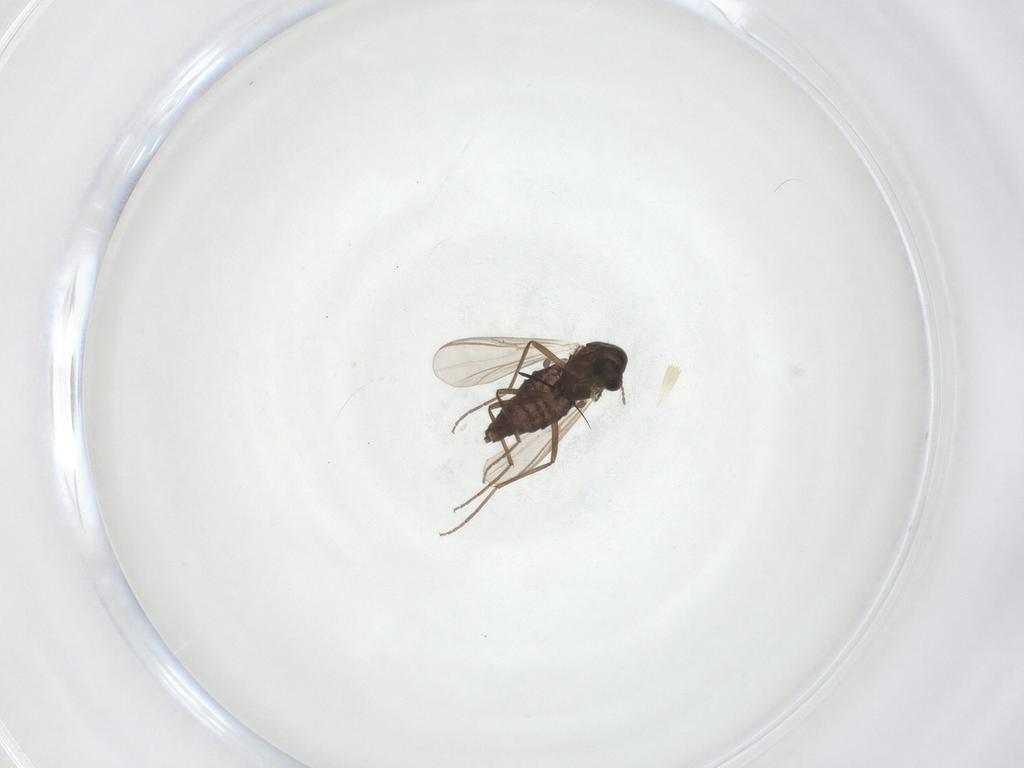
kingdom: Animalia
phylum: Arthropoda
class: Insecta
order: Diptera
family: Chironomidae
